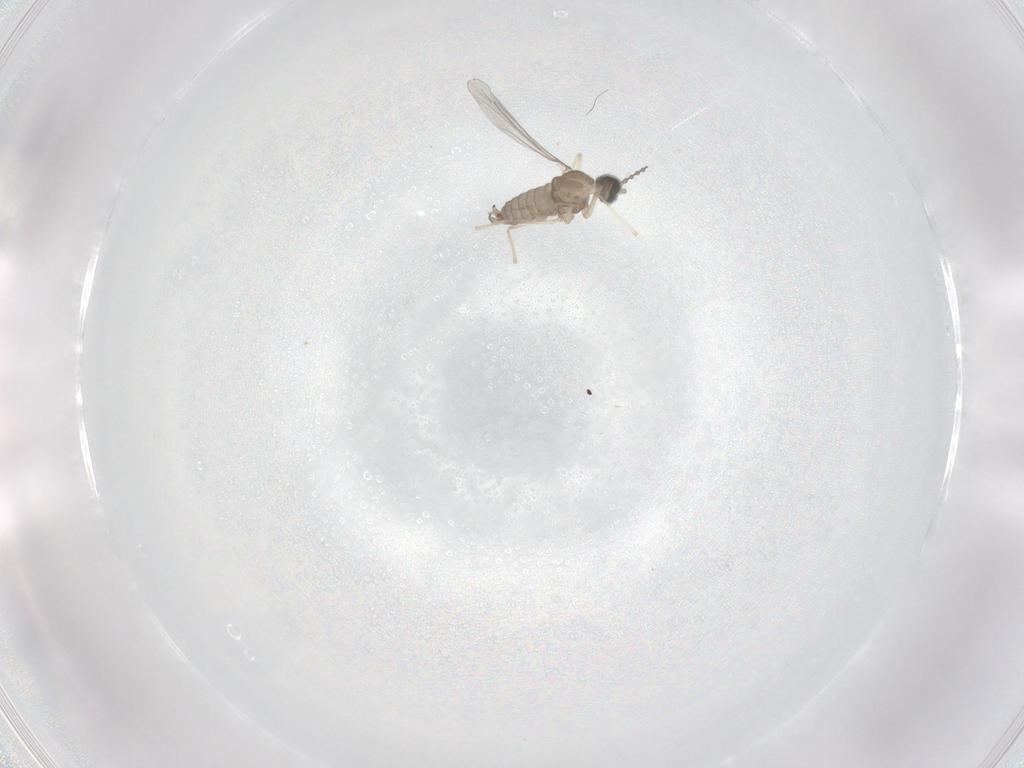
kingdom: Animalia
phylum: Arthropoda
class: Insecta
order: Diptera
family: Cecidomyiidae
